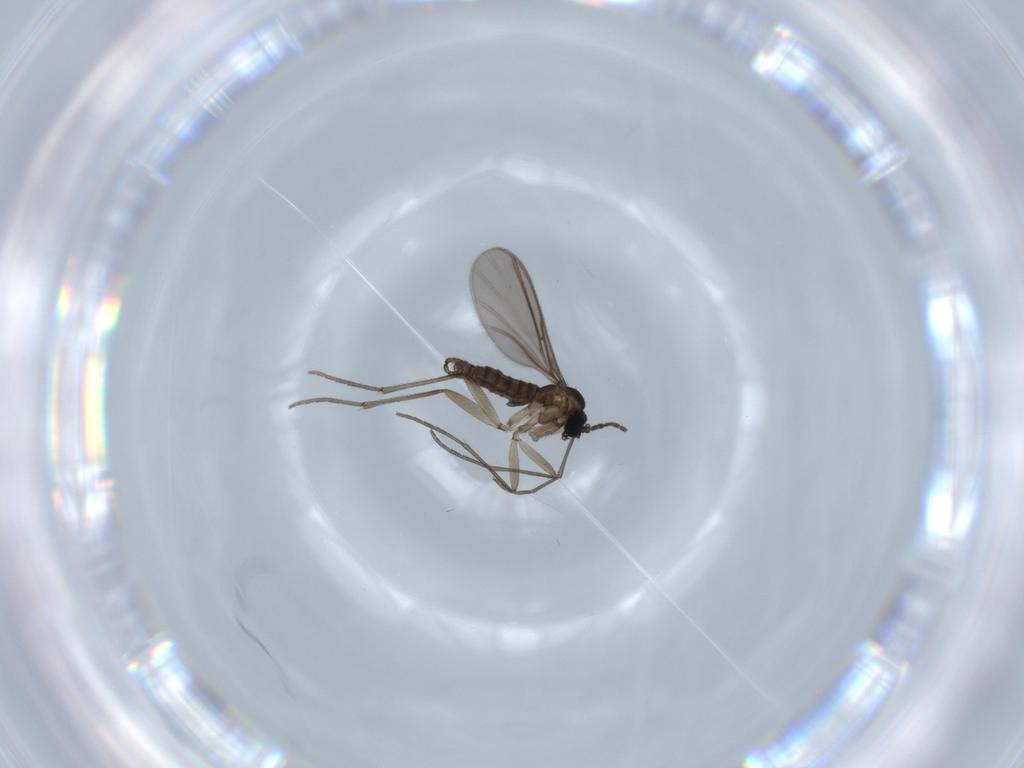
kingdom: Animalia
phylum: Arthropoda
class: Insecta
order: Diptera
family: Sciaridae
